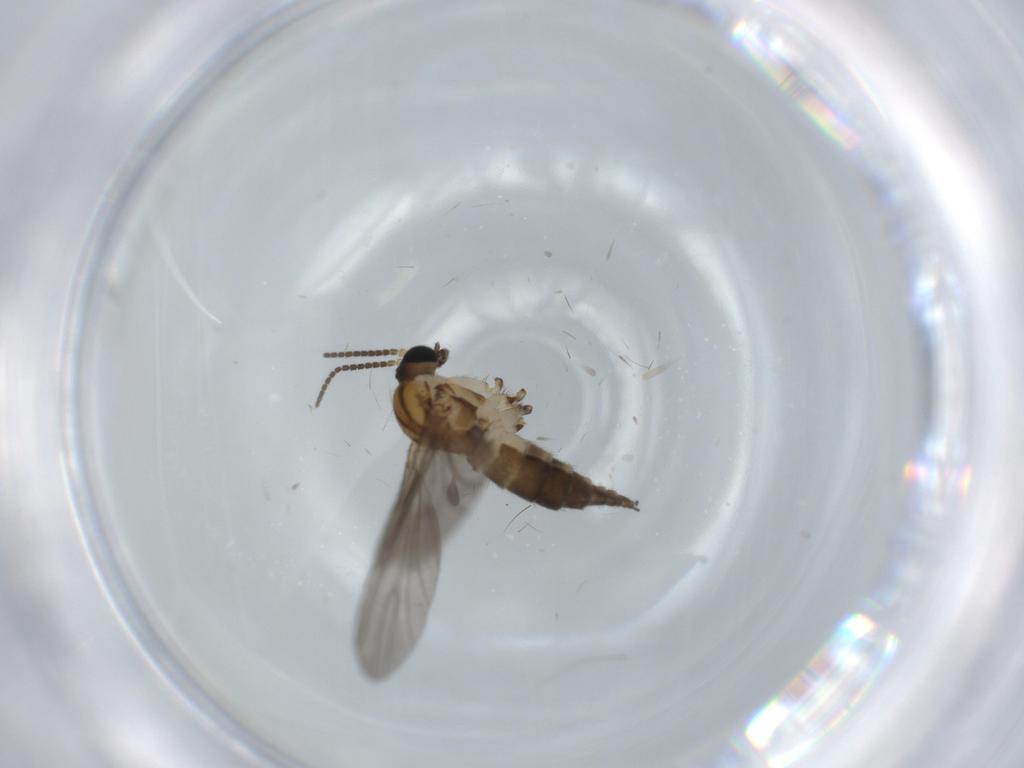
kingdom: Animalia
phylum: Arthropoda
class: Insecta
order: Diptera
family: Sciaridae
